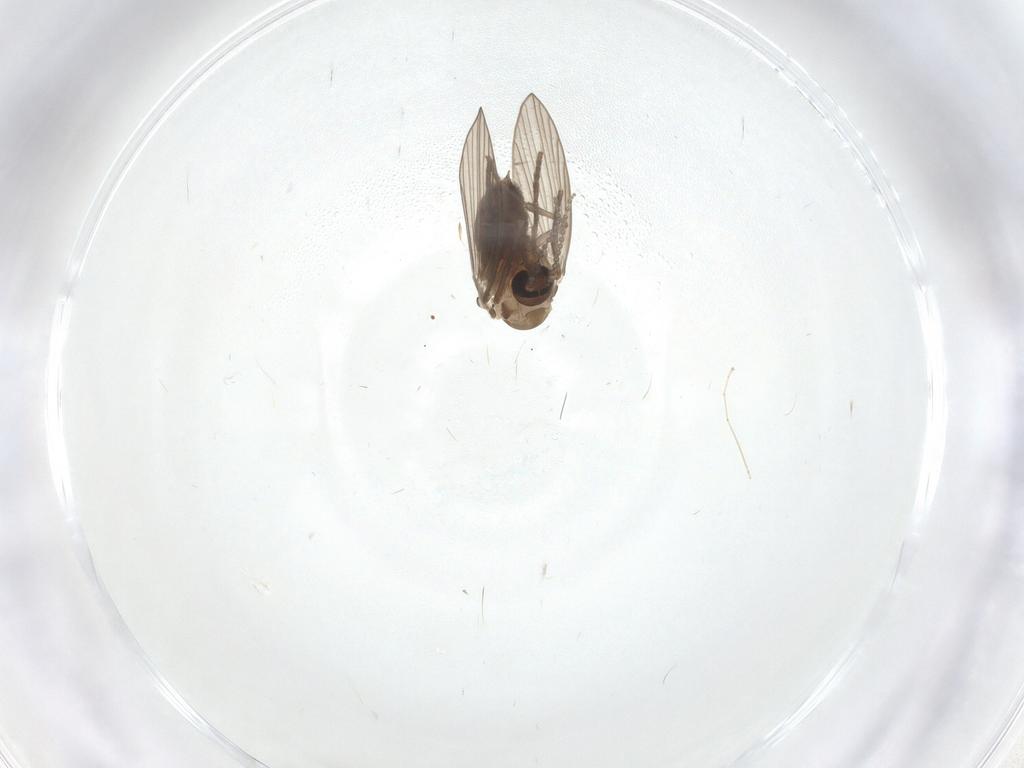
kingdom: Animalia
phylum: Arthropoda
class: Insecta
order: Diptera
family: Psychodidae
